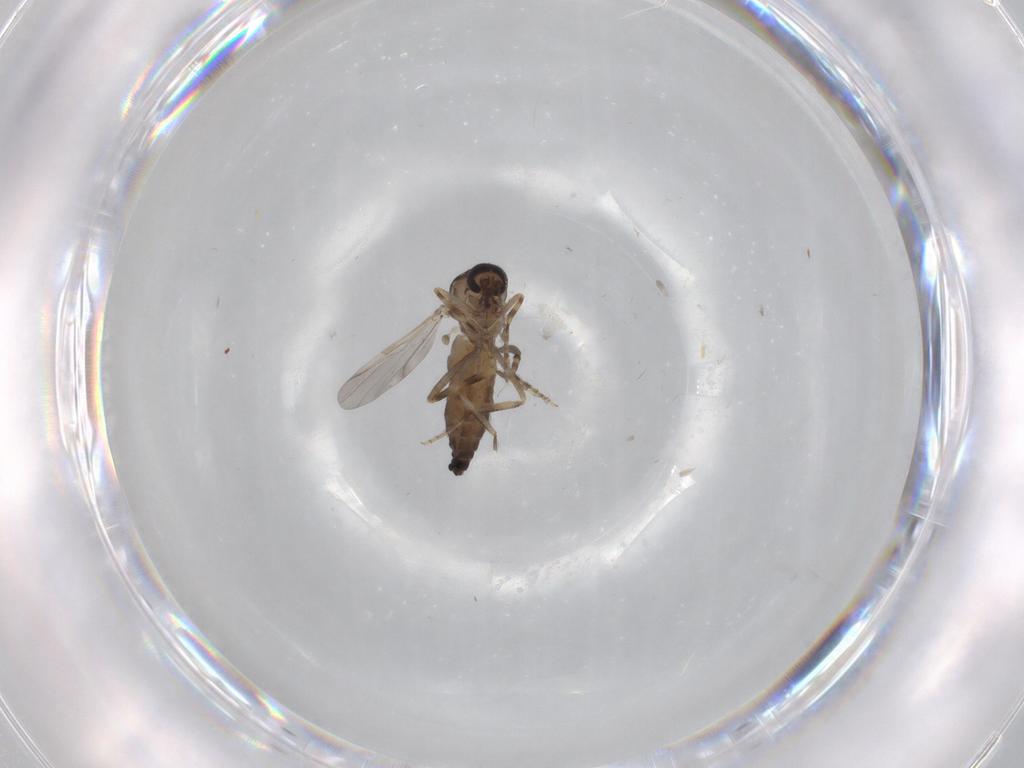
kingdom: Animalia
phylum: Arthropoda
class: Insecta
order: Diptera
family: Ceratopogonidae
